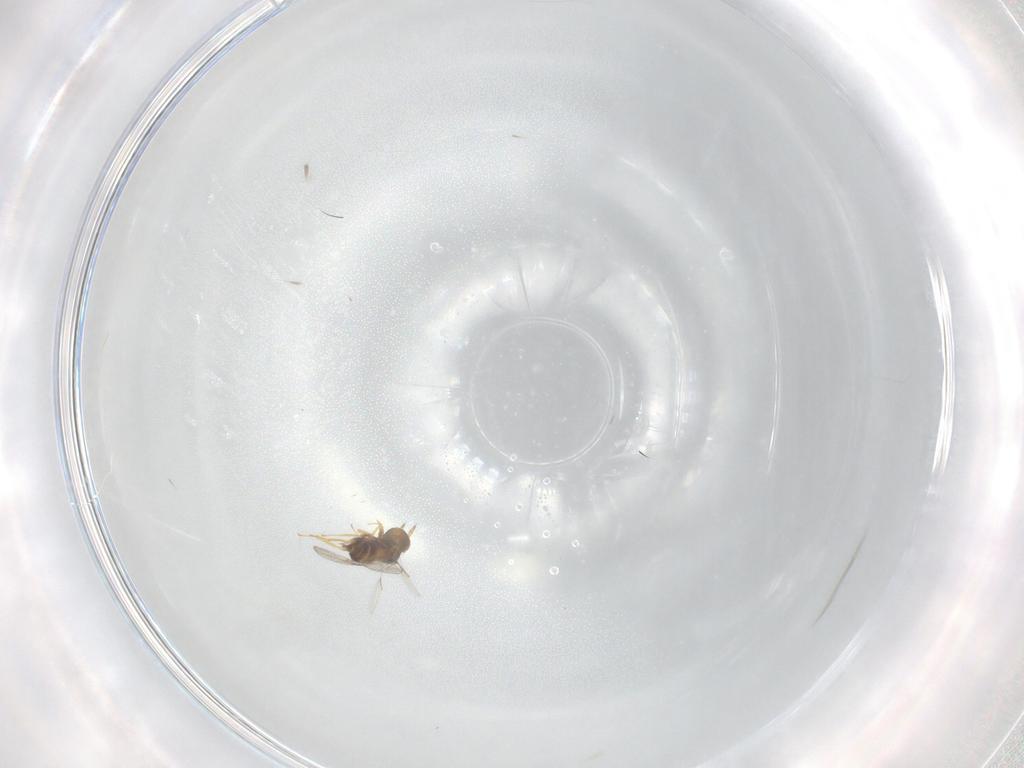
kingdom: Animalia
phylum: Arthropoda
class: Insecta
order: Hymenoptera
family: Trichogrammatidae
